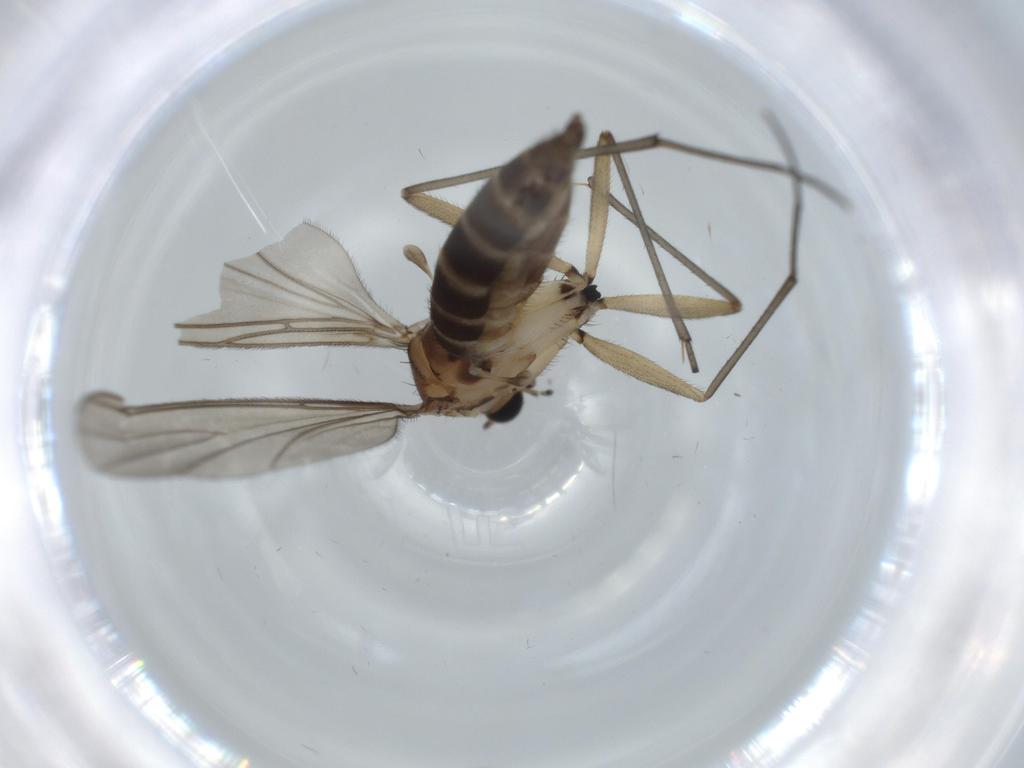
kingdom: Animalia
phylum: Arthropoda
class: Insecta
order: Diptera
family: Sciaridae
